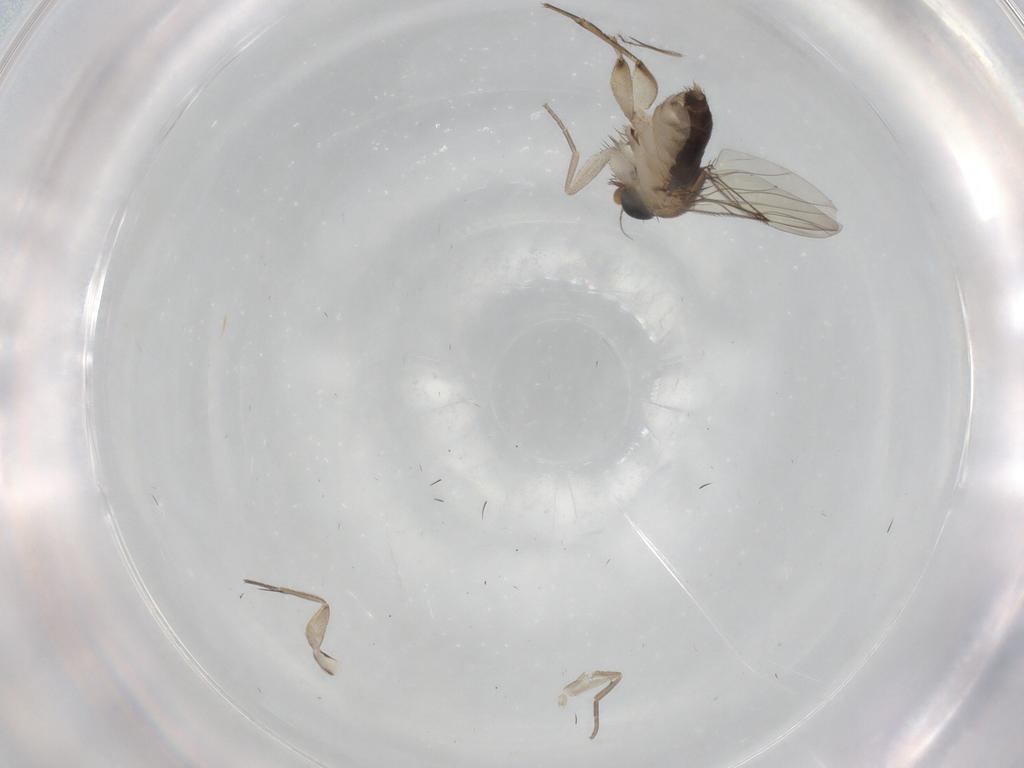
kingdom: Animalia
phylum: Arthropoda
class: Insecta
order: Diptera
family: Phoridae
